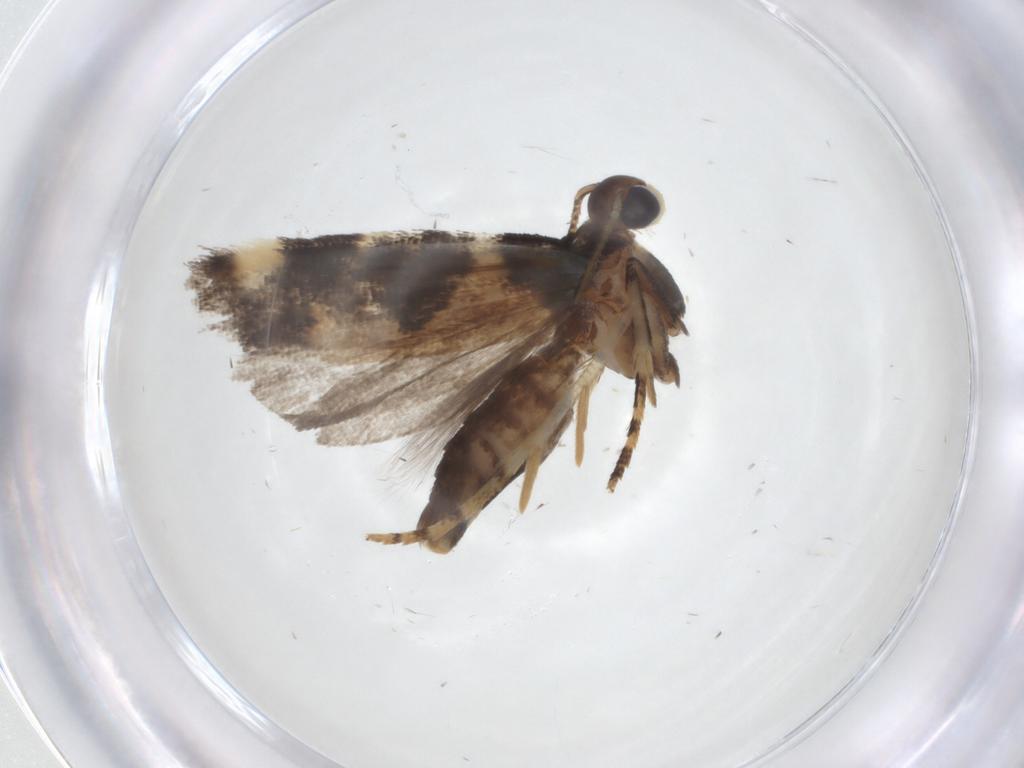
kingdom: Animalia
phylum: Arthropoda
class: Insecta
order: Lepidoptera
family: Gelechiidae
